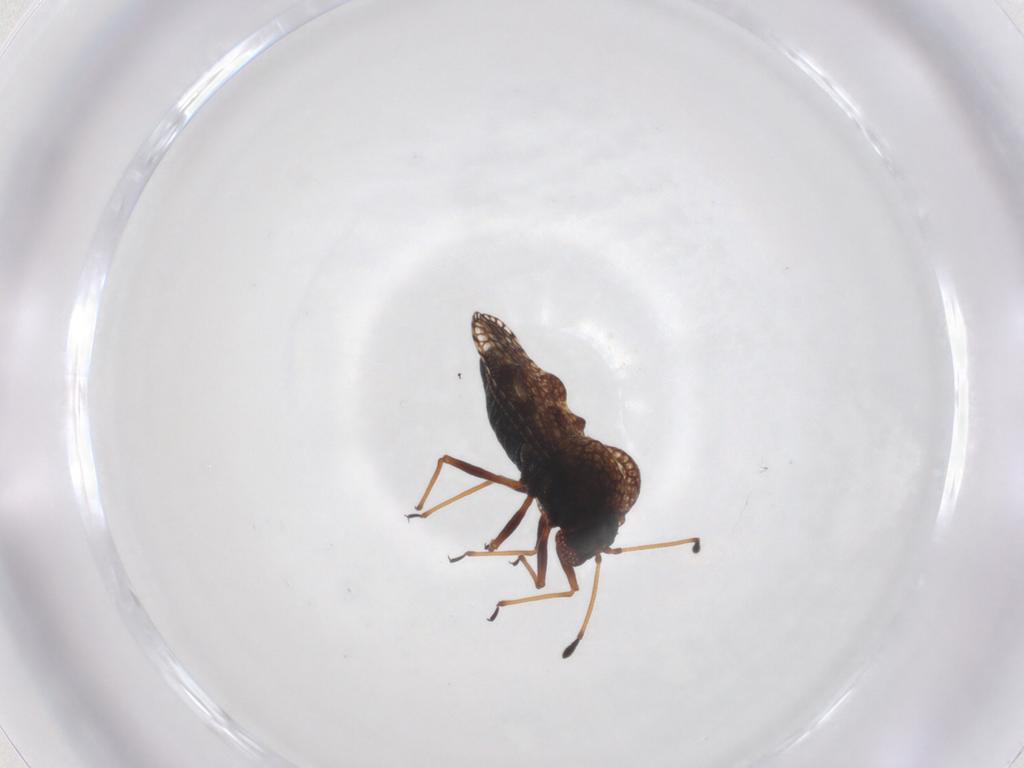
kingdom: Animalia
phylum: Arthropoda
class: Insecta
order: Hemiptera
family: Tingidae
